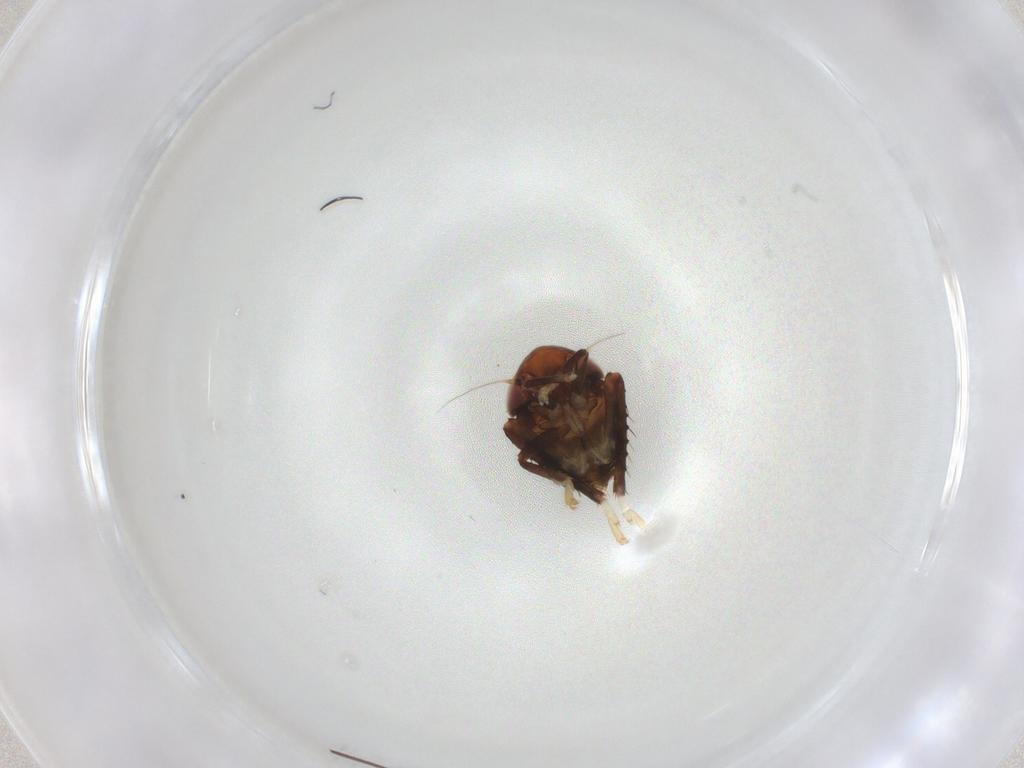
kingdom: Animalia
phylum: Arthropoda
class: Insecta
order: Hemiptera
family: Cicadellidae
